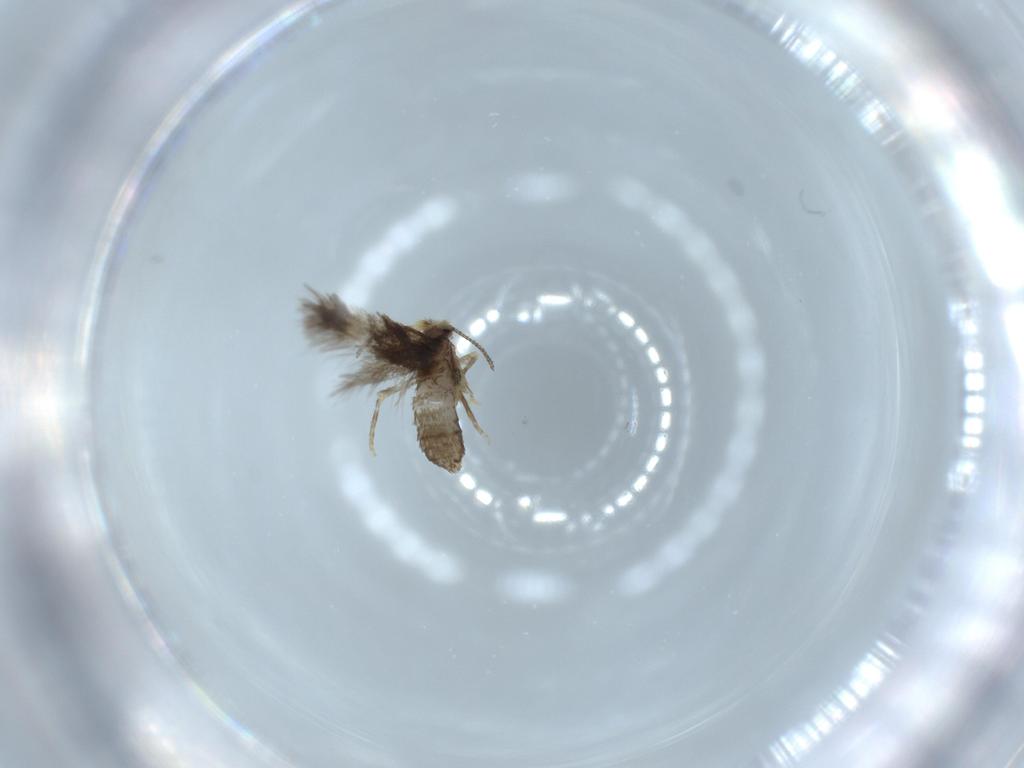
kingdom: Animalia
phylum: Arthropoda
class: Insecta
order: Lepidoptera
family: Nepticulidae
